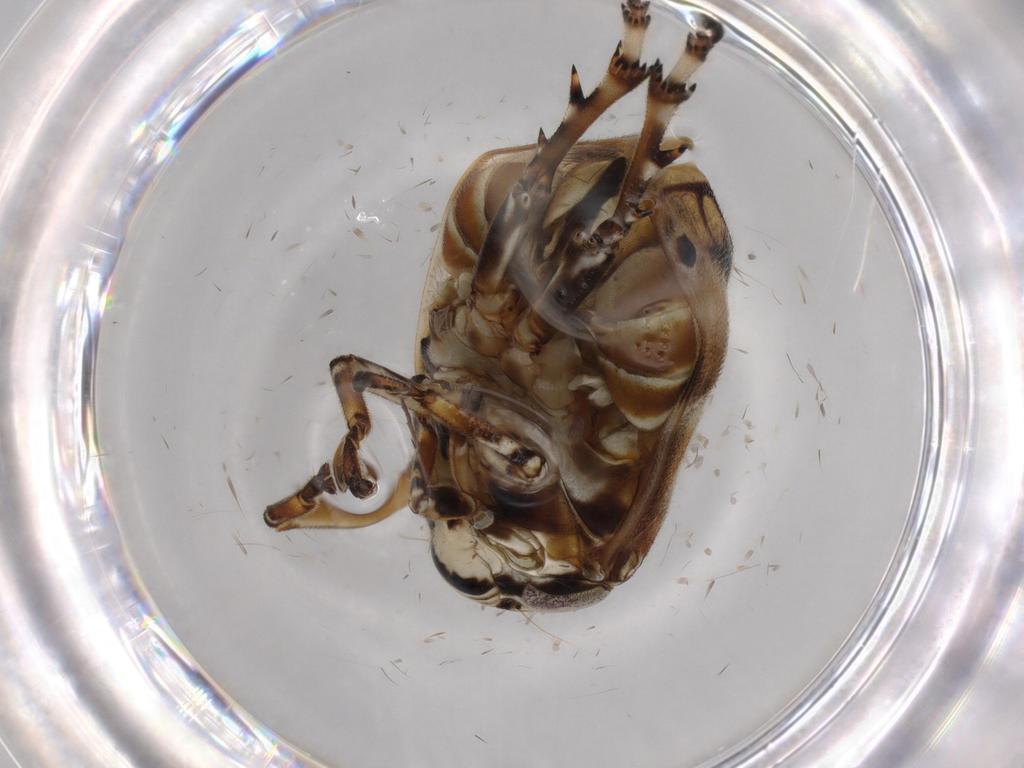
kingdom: Animalia
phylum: Arthropoda
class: Insecta
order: Hemiptera
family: Clastopteridae
